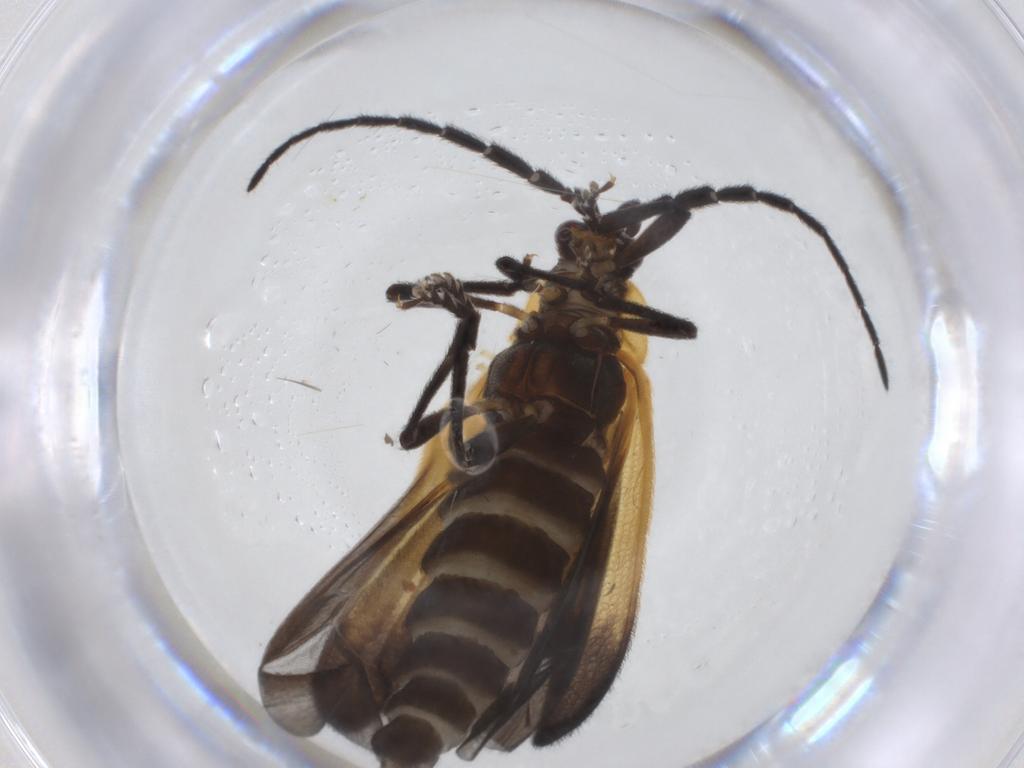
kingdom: Animalia
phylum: Arthropoda
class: Insecta
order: Coleoptera
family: Lycidae
